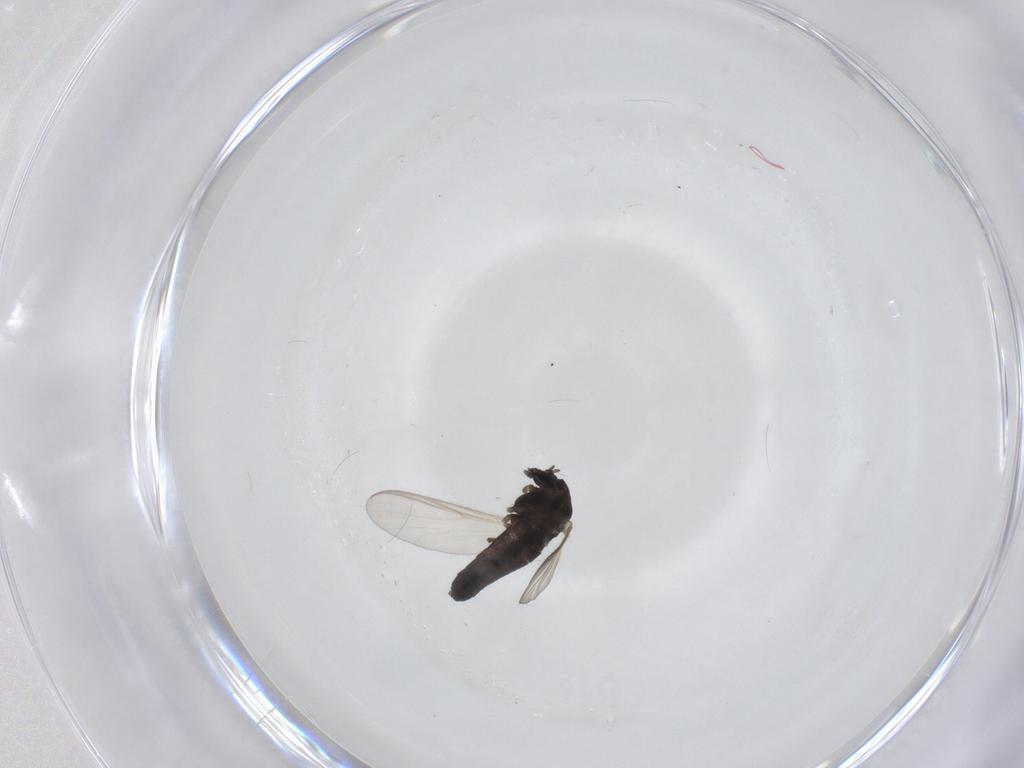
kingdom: Animalia
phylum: Arthropoda
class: Insecta
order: Diptera
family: Chironomidae
